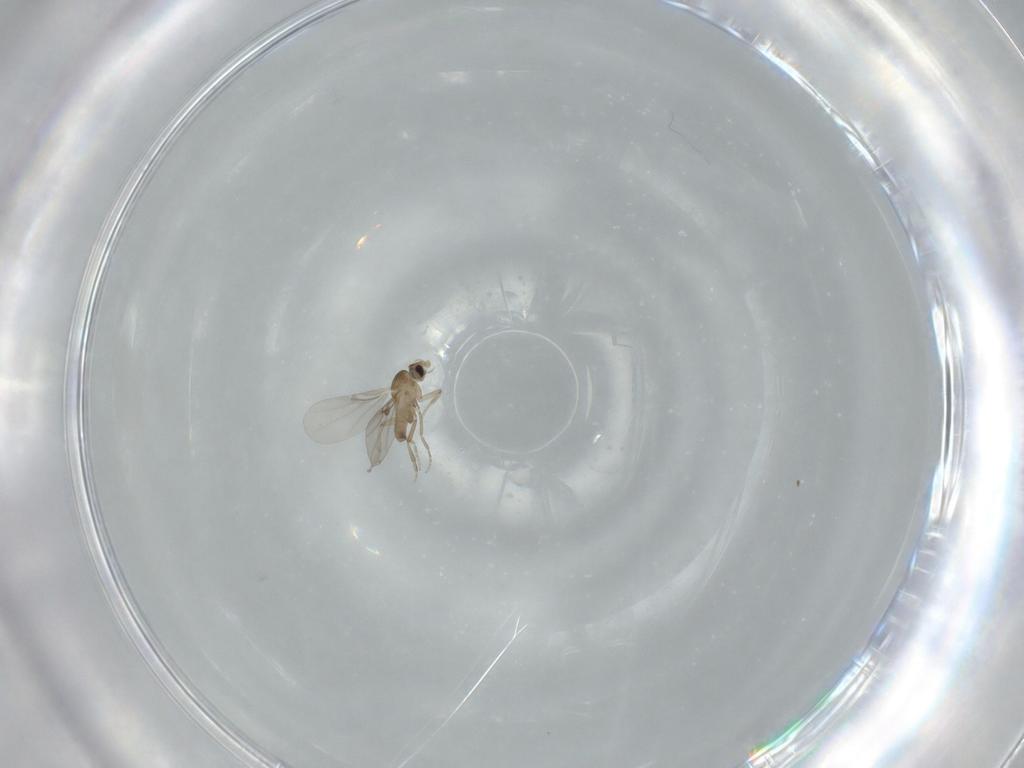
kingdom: Animalia
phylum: Arthropoda
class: Insecta
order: Diptera
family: Phoridae
